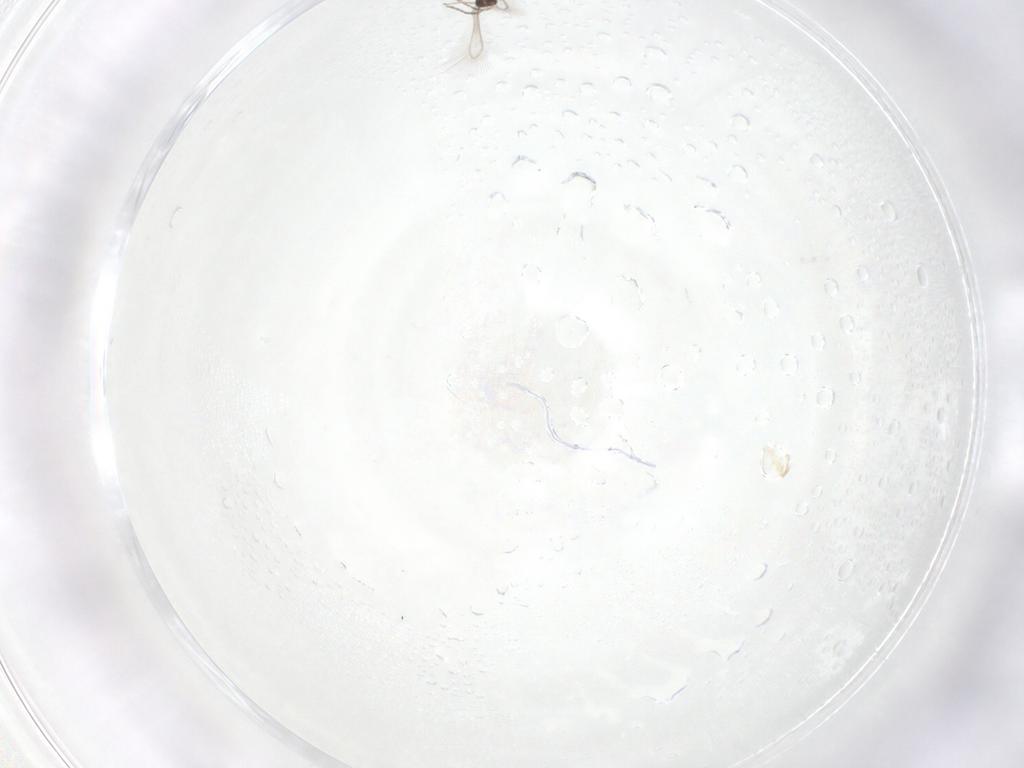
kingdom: Animalia
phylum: Arthropoda
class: Insecta
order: Hymenoptera
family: Mymaridae
